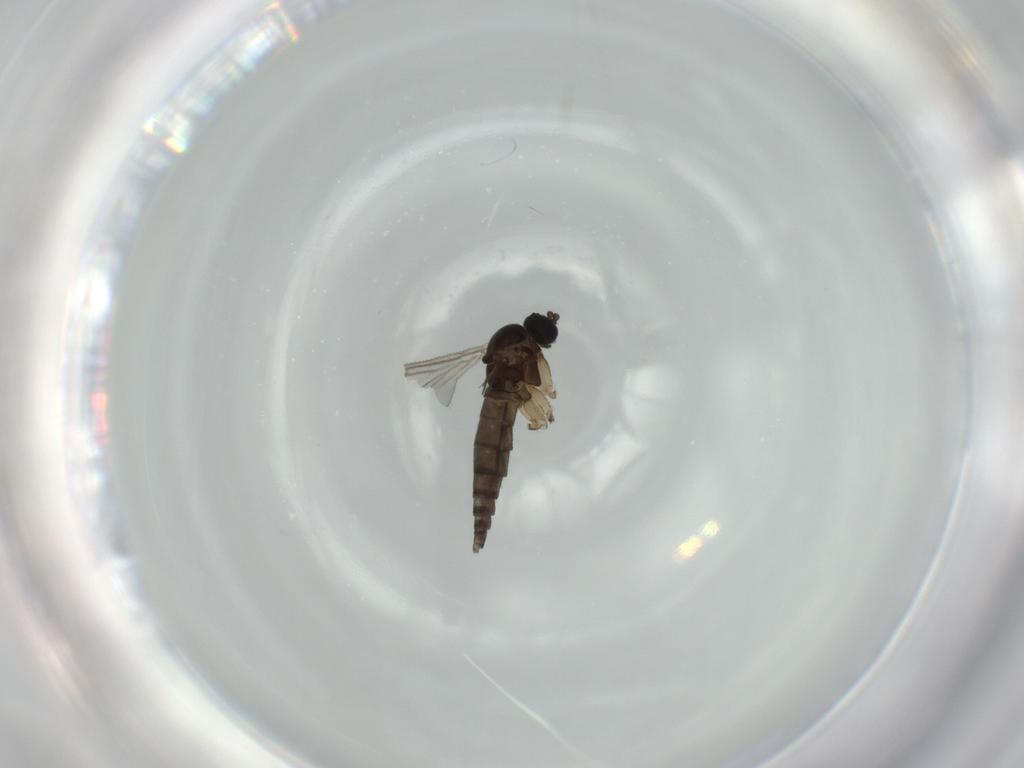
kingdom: Animalia
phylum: Arthropoda
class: Insecta
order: Diptera
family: Sciaridae
